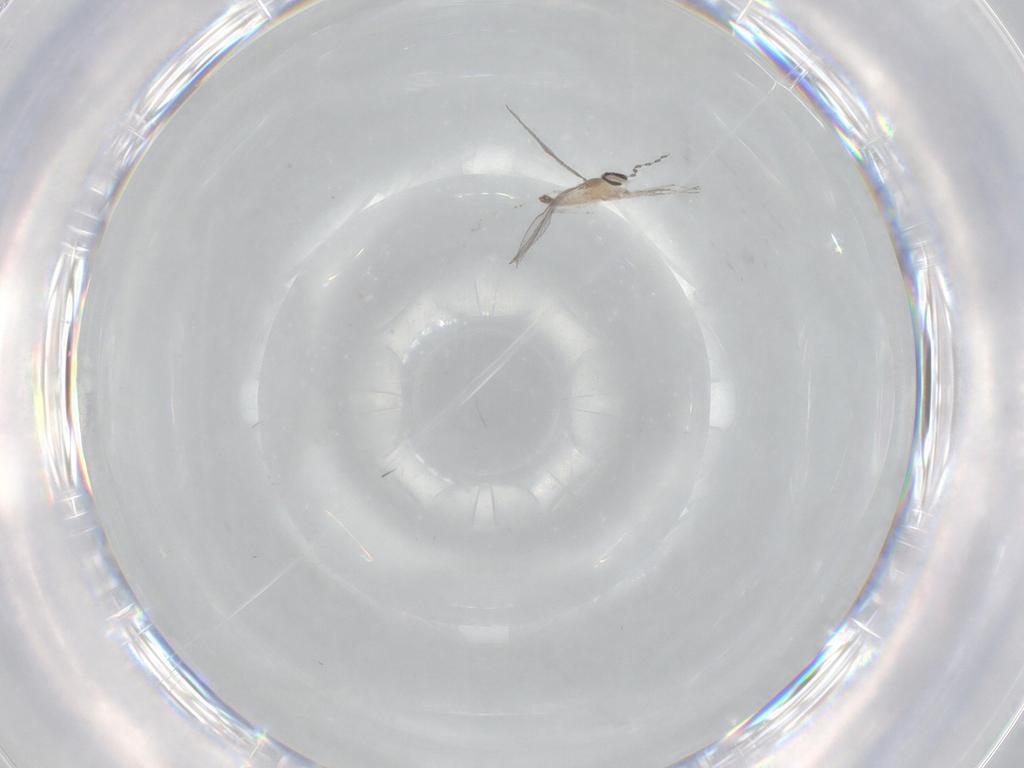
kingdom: Animalia
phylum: Arthropoda
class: Insecta
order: Diptera
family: Cecidomyiidae
